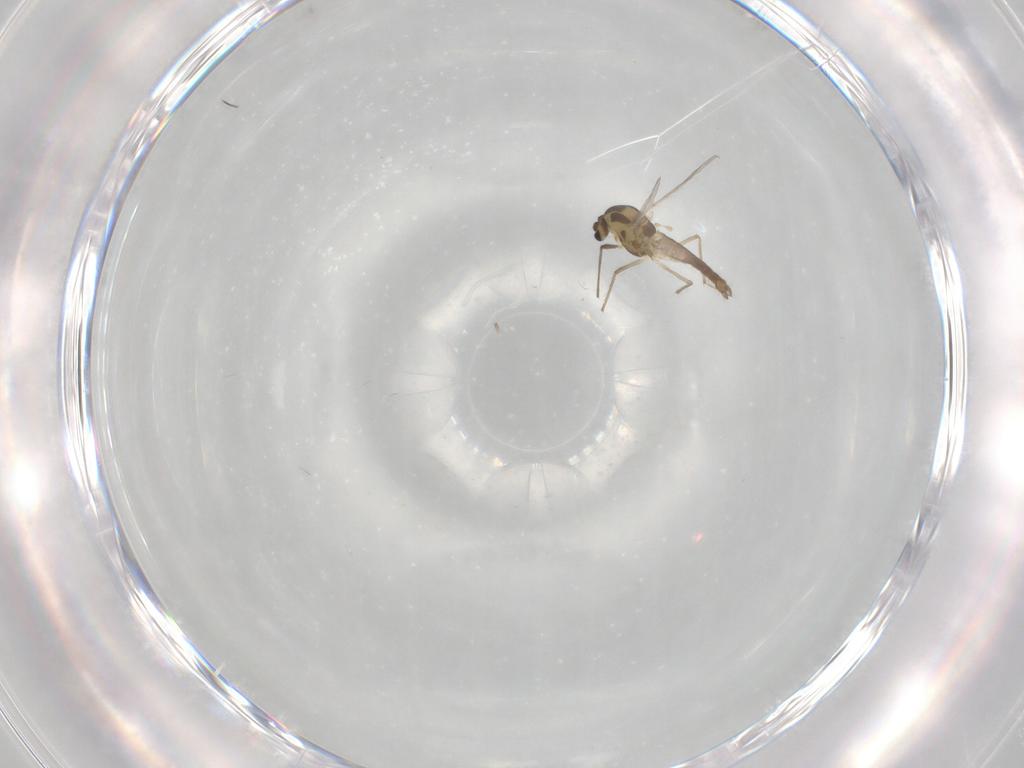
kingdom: Animalia
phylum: Arthropoda
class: Insecta
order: Diptera
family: Chironomidae
